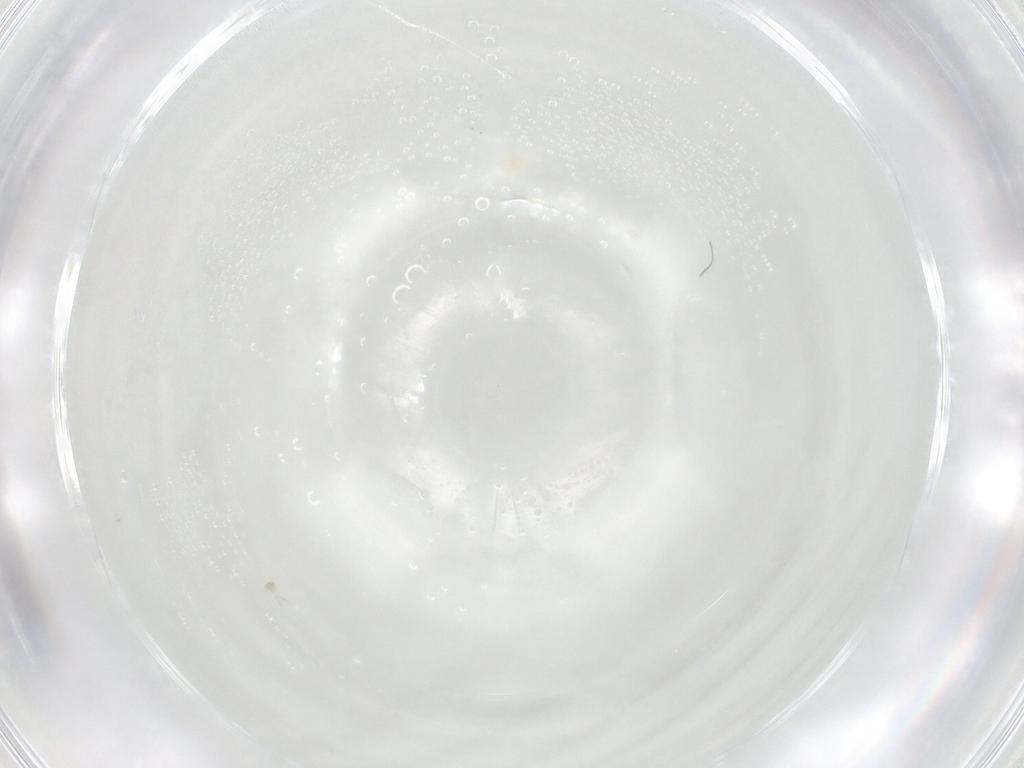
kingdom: Animalia
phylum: Arthropoda
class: Arachnida
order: Trombidiformes
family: Eupodidae
